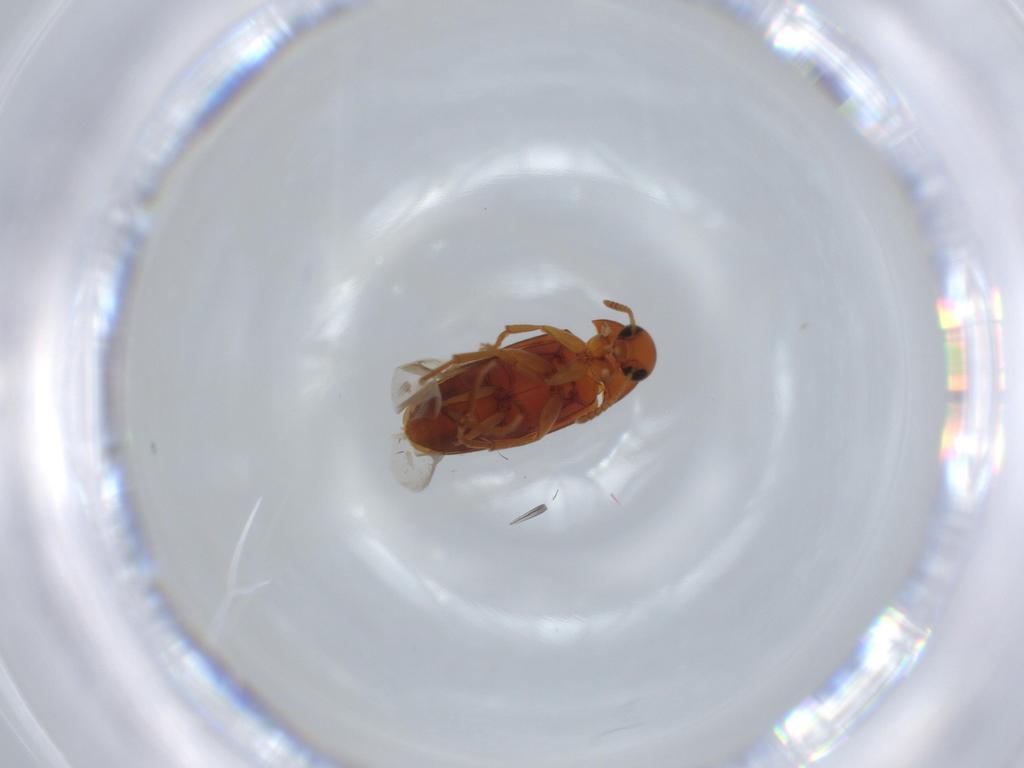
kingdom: Animalia
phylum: Arthropoda
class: Insecta
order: Coleoptera
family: Scraptiidae
